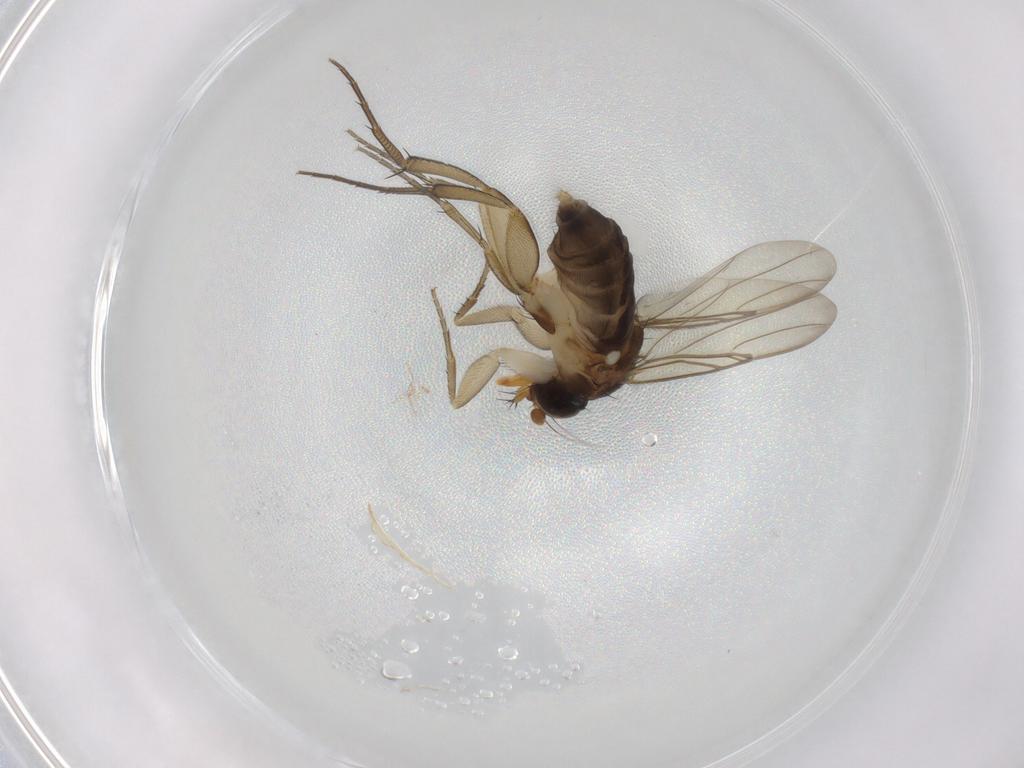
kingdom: Animalia
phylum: Arthropoda
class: Insecta
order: Diptera
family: Phoridae
